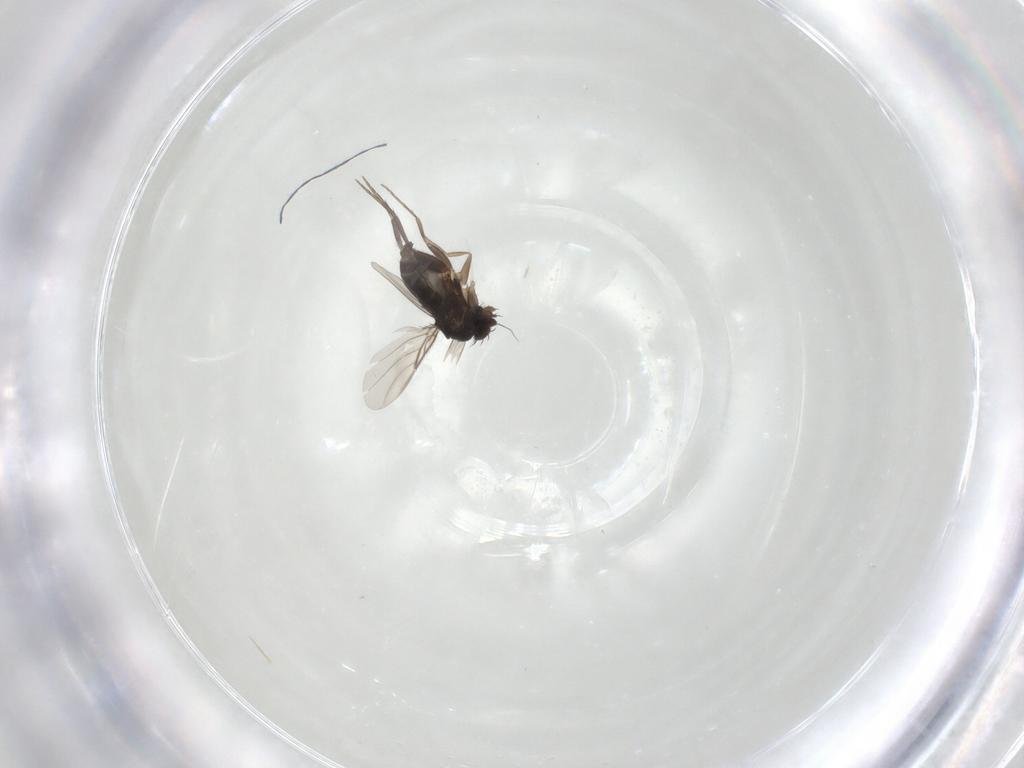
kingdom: Animalia
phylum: Arthropoda
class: Insecta
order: Diptera
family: Phoridae
